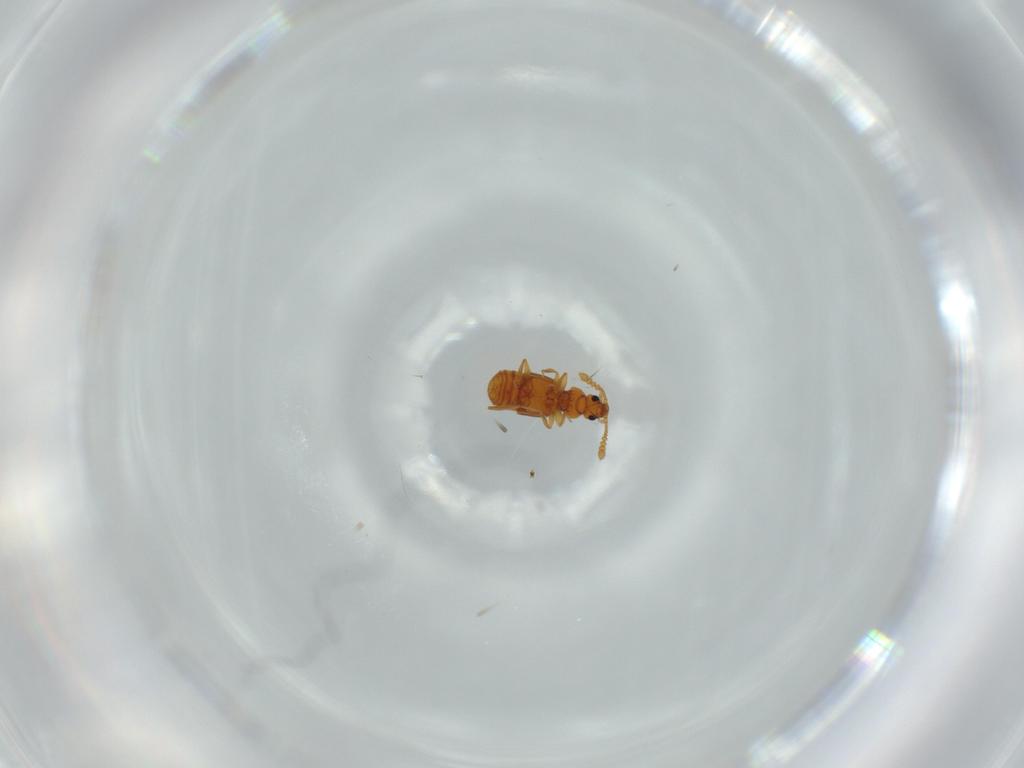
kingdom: Animalia
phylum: Arthropoda
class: Insecta
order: Coleoptera
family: Staphylinidae
